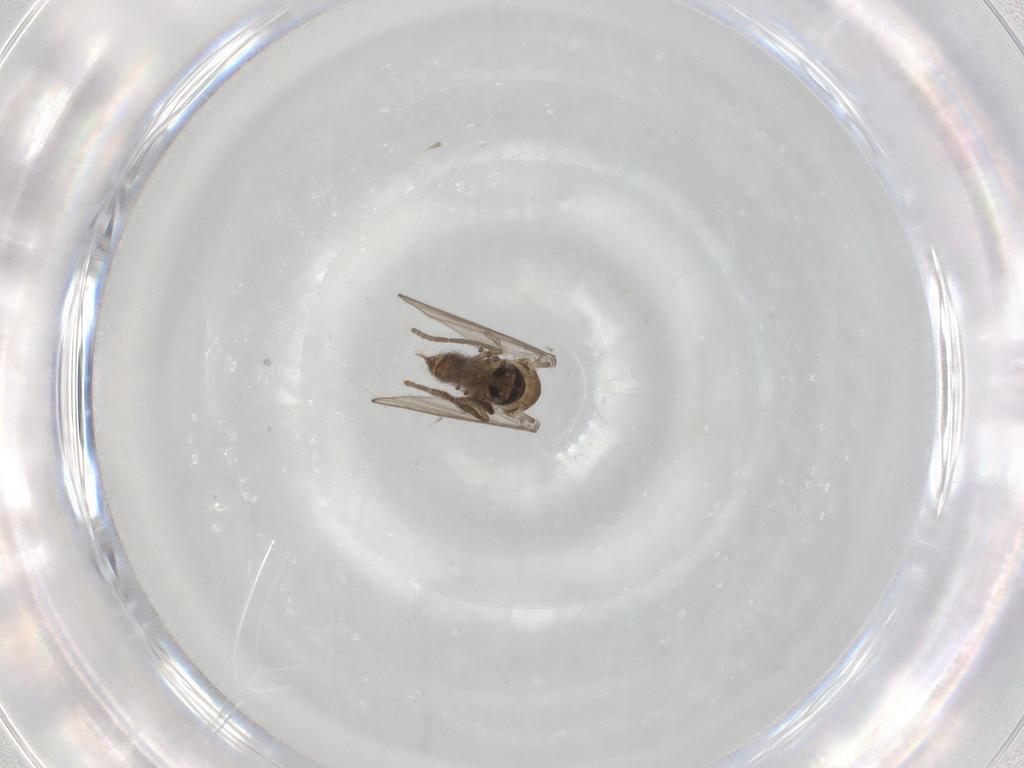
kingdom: Animalia
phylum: Arthropoda
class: Insecta
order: Diptera
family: Psychodidae
